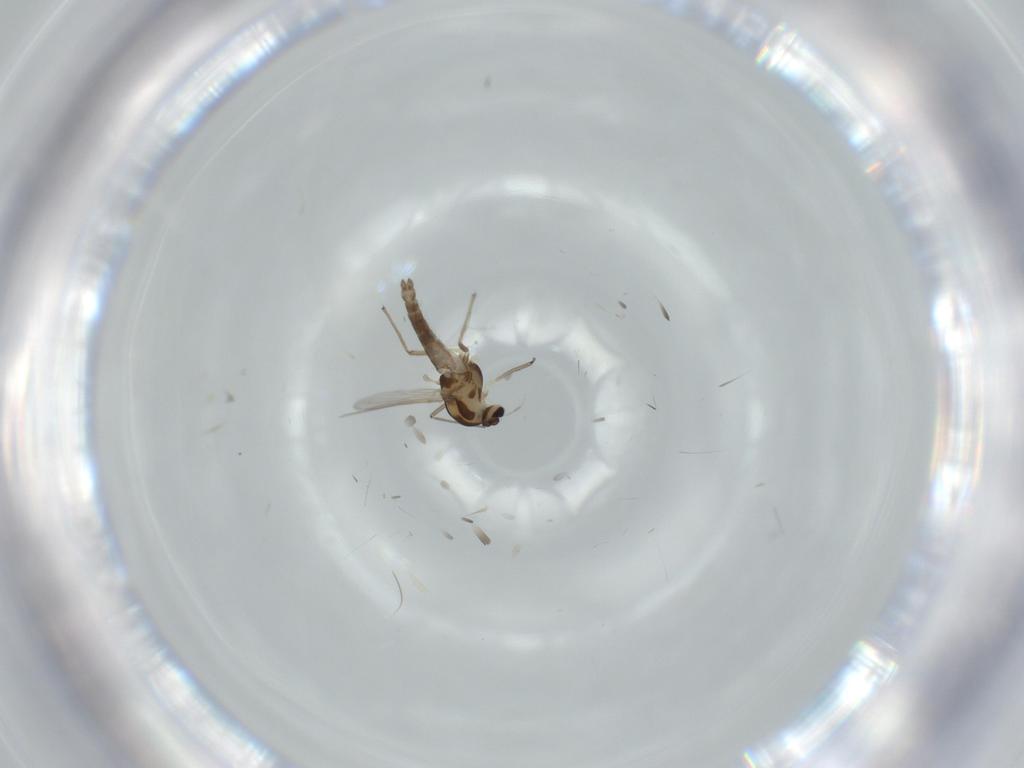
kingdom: Animalia
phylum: Arthropoda
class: Insecta
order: Diptera
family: Chironomidae
